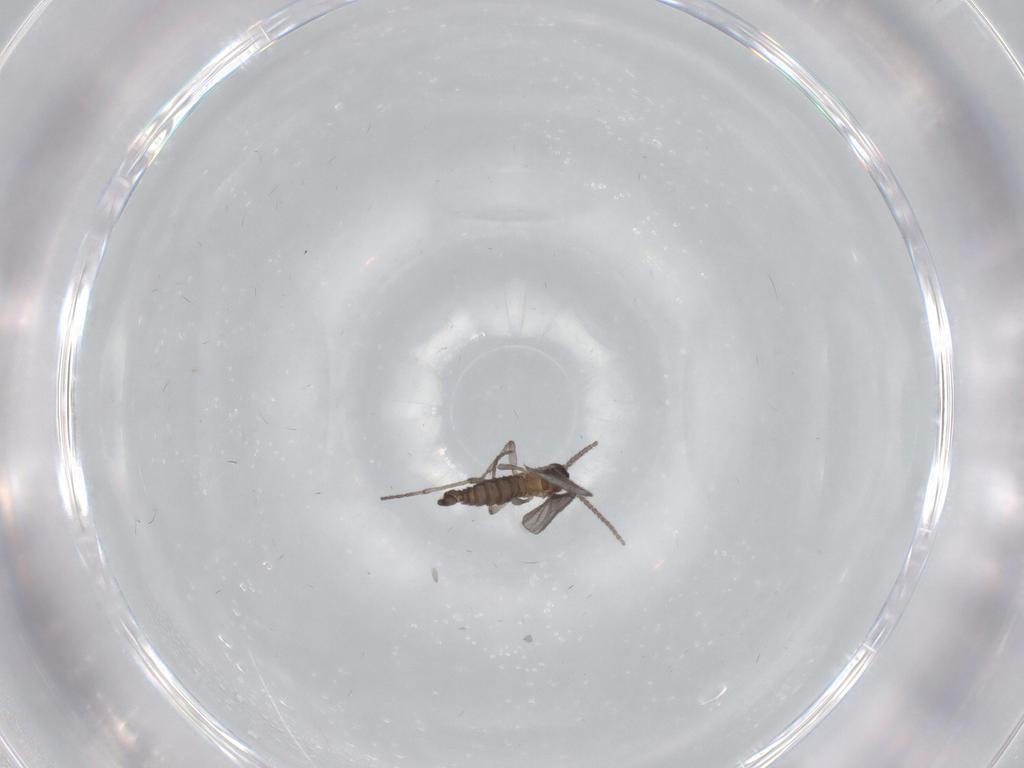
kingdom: Animalia
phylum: Arthropoda
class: Insecta
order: Diptera
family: Sciaridae
